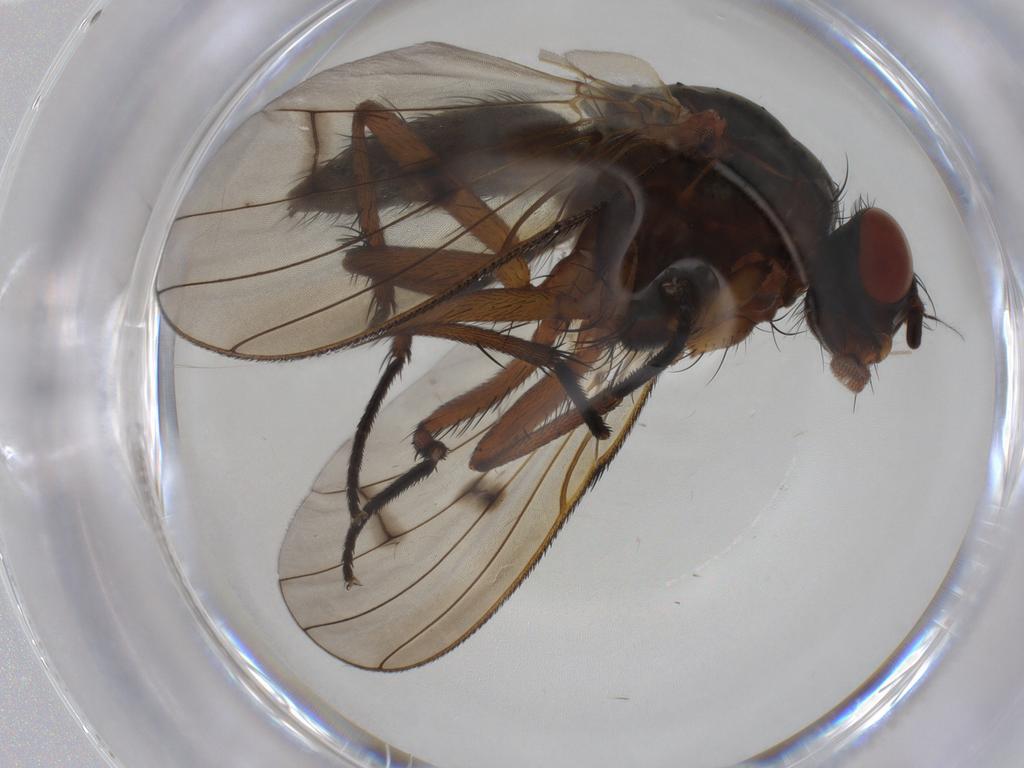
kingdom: Animalia
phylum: Arthropoda
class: Insecta
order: Diptera
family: Anthomyiidae
